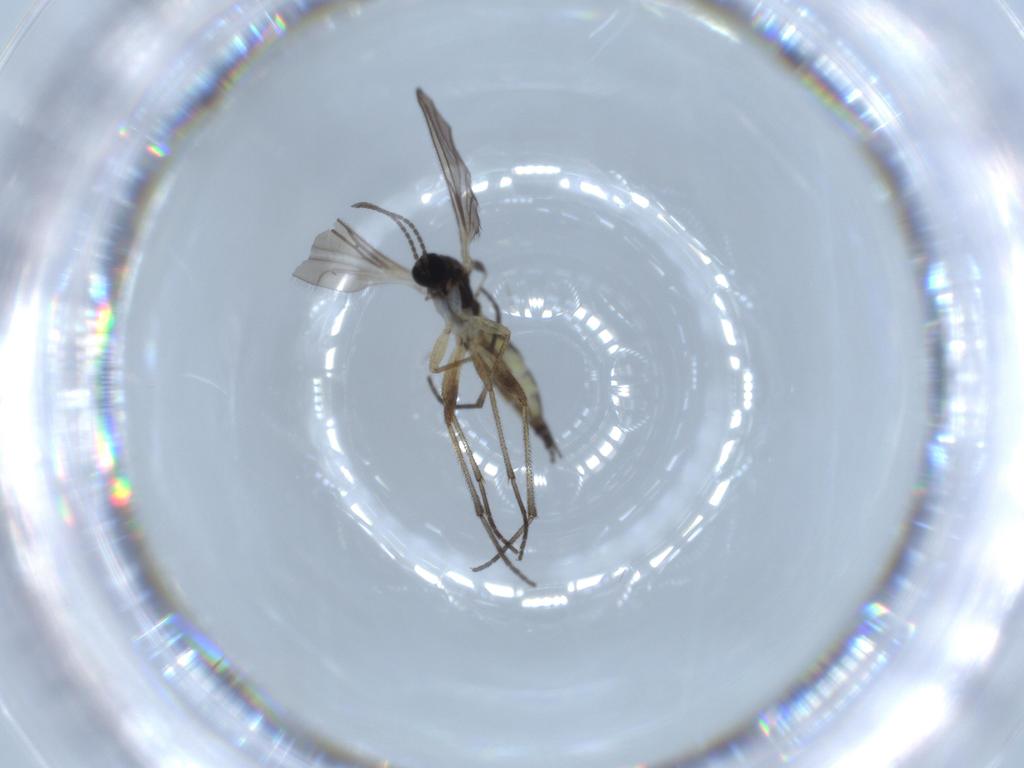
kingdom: Animalia
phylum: Arthropoda
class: Insecta
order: Diptera
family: Sciaridae
